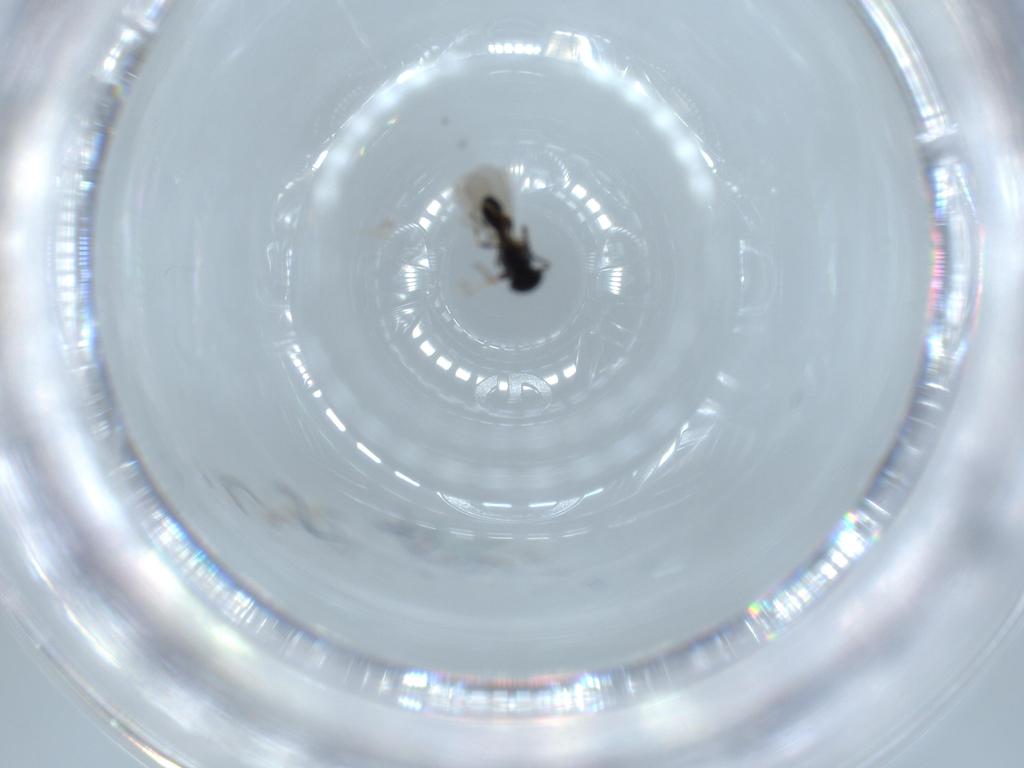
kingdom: Animalia
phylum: Arthropoda
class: Insecta
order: Hymenoptera
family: Platygastridae
